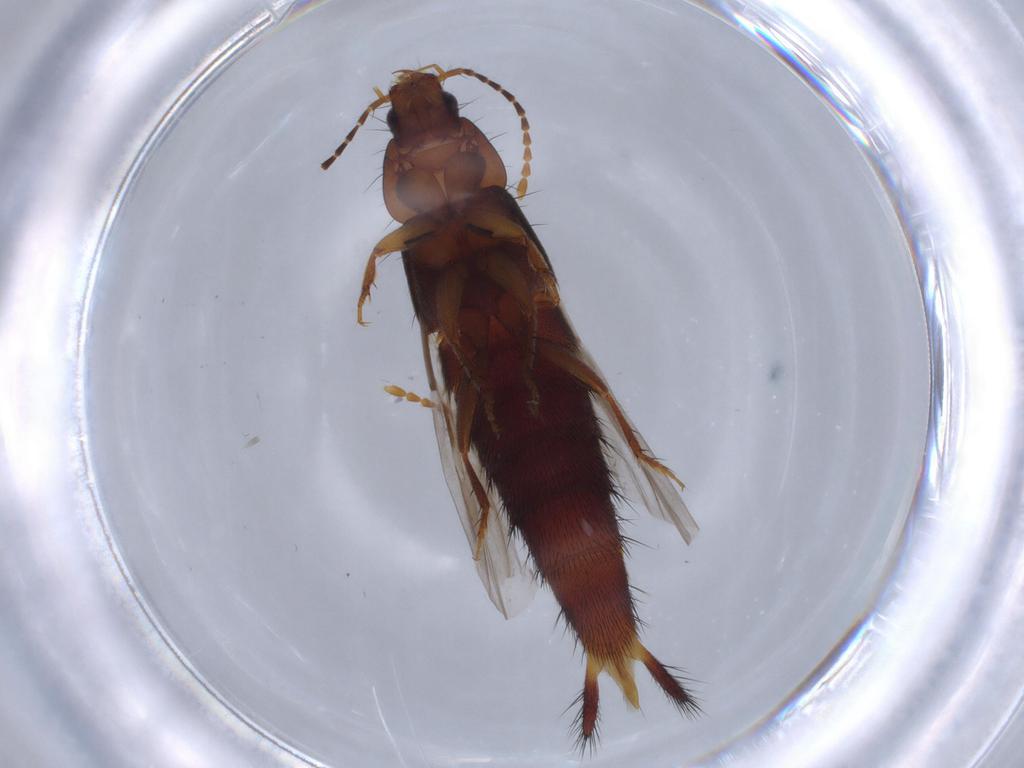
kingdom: Animalia
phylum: Arthropoda
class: Insecta
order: Coleoptera
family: Staphylinidae
